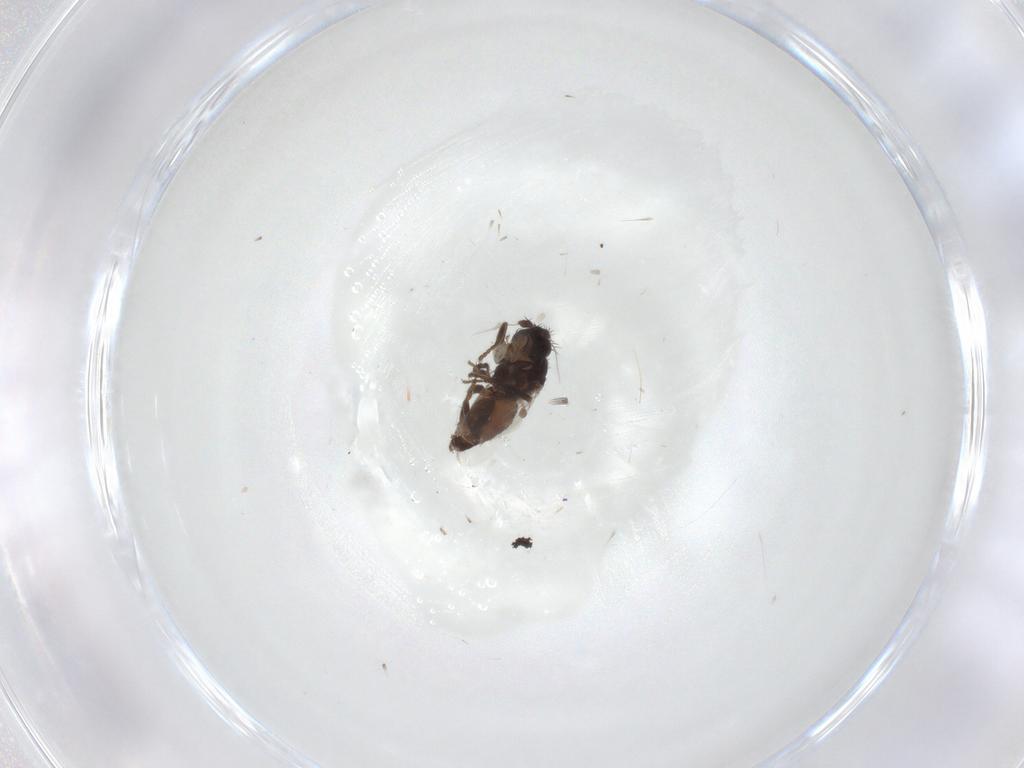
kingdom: Animalia
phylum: Arthropoda
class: Insecta
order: Diptera
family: Sphaeroceridae
